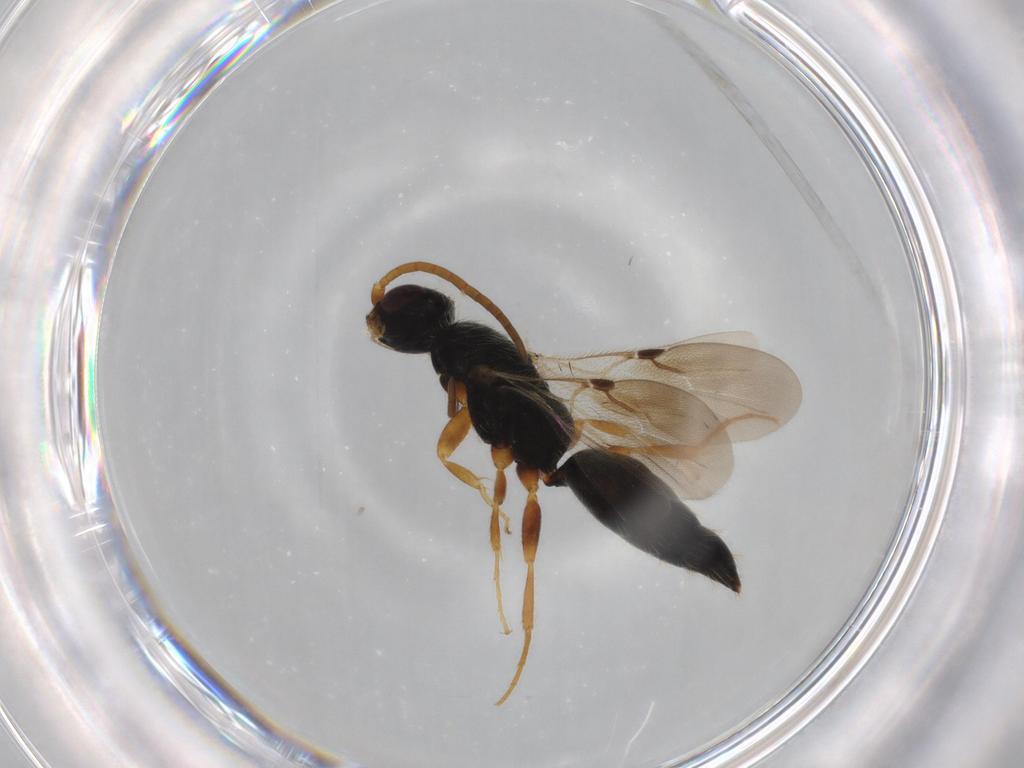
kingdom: Animalia
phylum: Arthropoda
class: Insecta
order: Hymenoptera
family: Bethylidae
